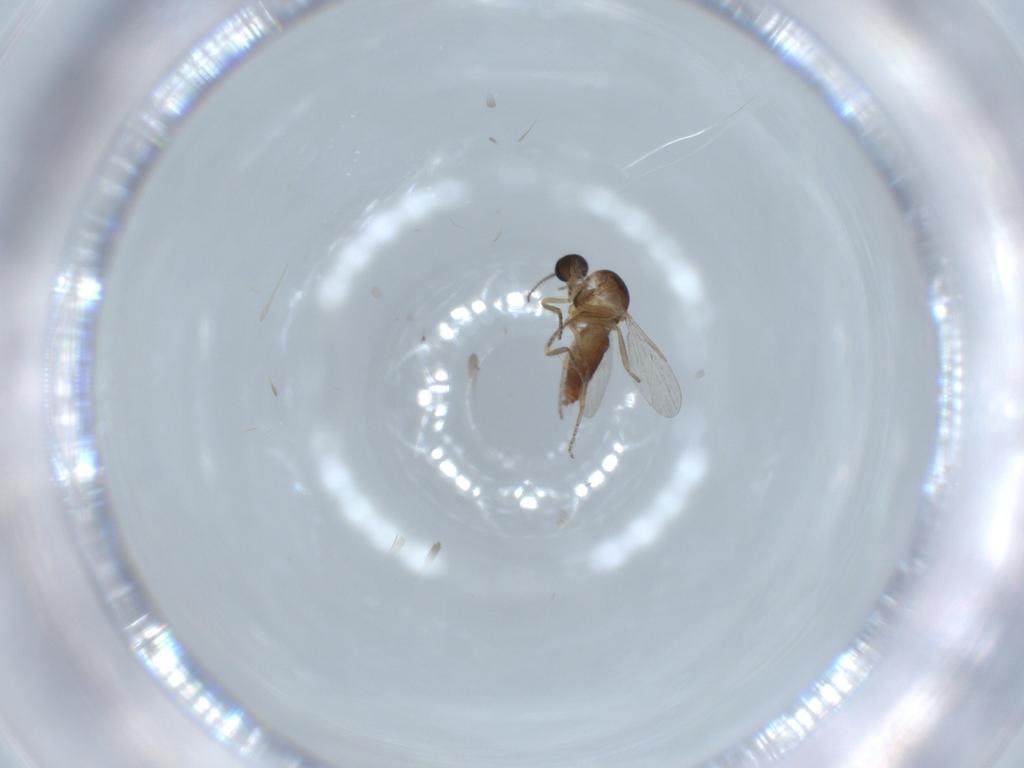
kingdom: Animalia
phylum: Arthropoda
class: Insecta
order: Diptera
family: Ceratopogonidae
